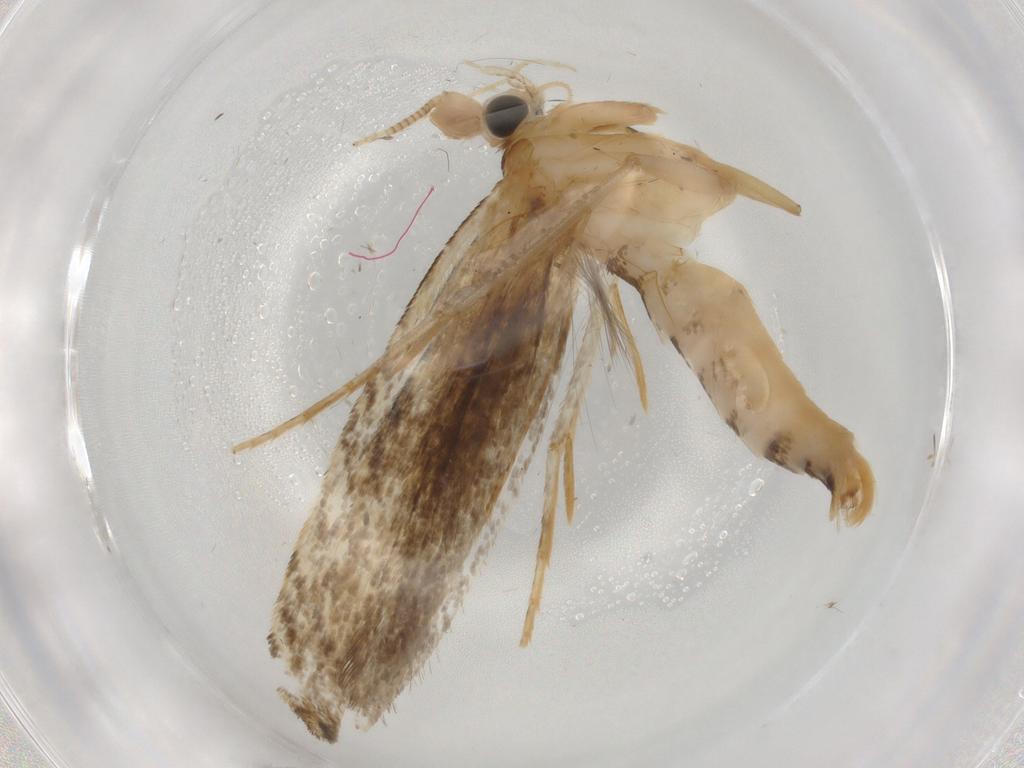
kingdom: Animalia
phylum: Arthropoda
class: Insecta
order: Lepidoptera
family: Nepticulidae
